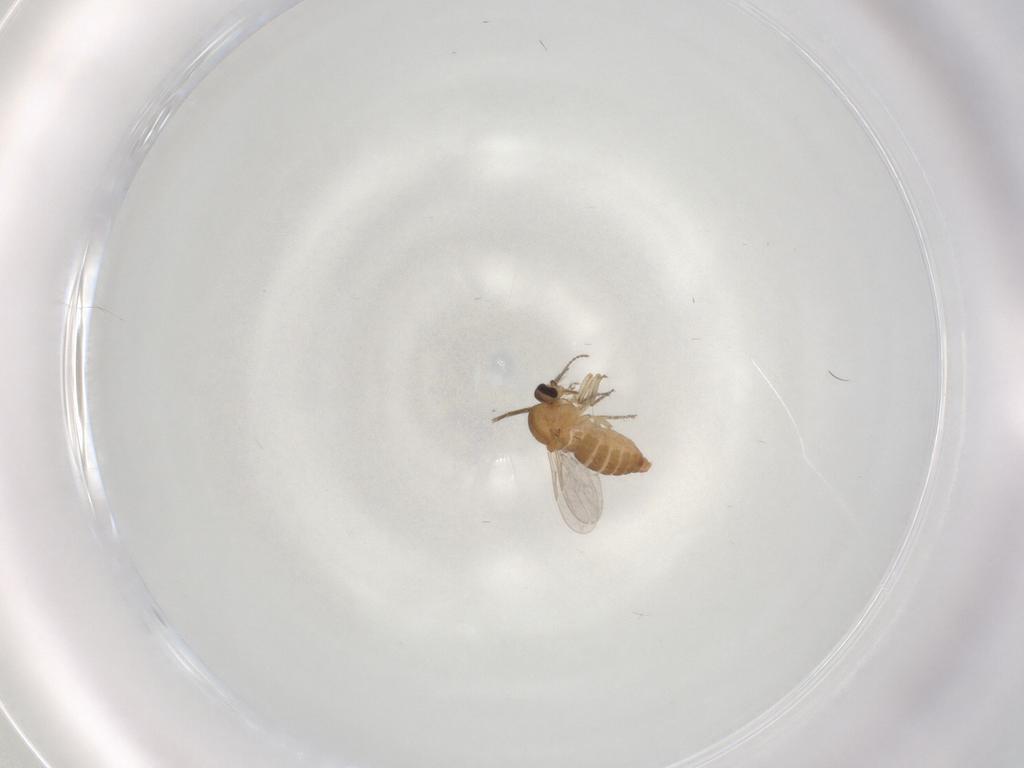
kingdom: Animalia
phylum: Arthropoda
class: Insecta
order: Diptera
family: Ceratopogonidae
